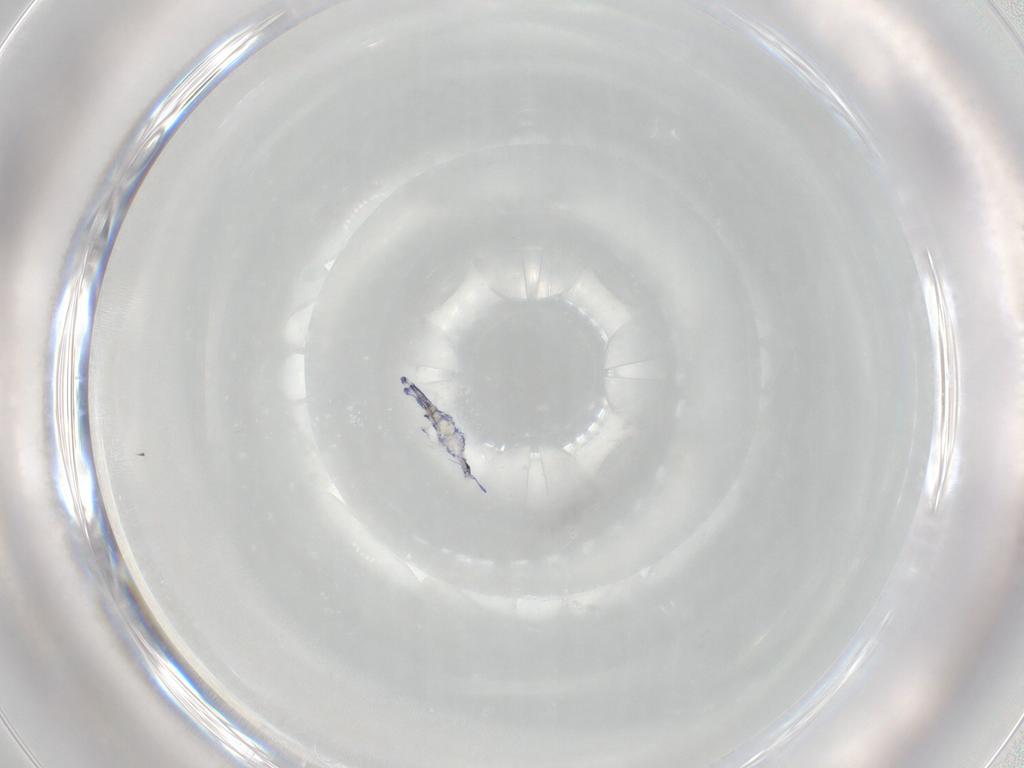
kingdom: Animalia
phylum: Arthropoda
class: Collembola
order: Entomobryomorpha
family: Entomobryidae
